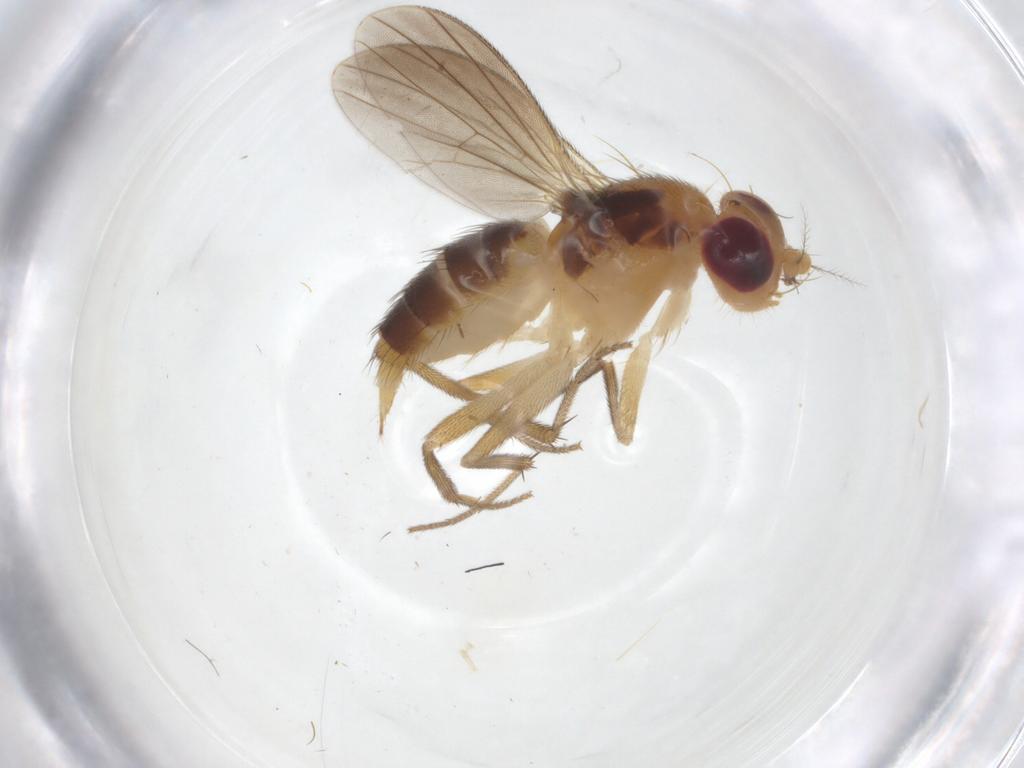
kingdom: Animalia
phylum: Arthropoda
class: Insecta
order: Diptera
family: Agromyzidae
